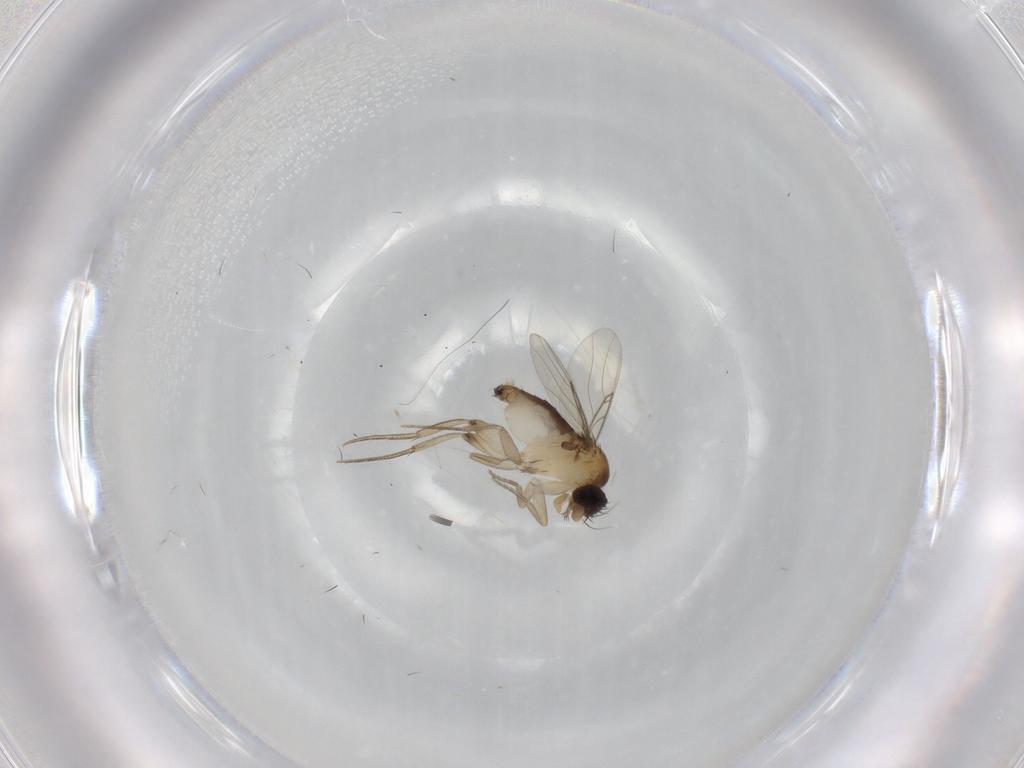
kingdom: Animalia
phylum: Arthropoda
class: Insecta
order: Diptera
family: Phoridae
